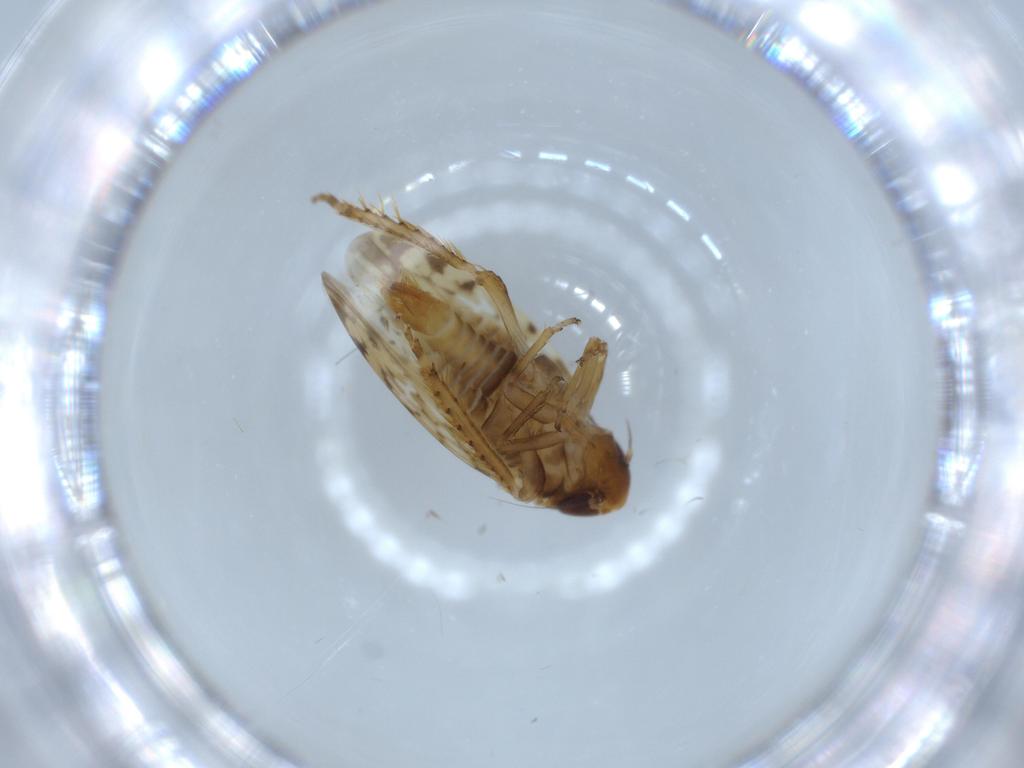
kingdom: Animalia
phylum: Arthropoda
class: Insecta
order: Hemiptera
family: Cicadellidae
